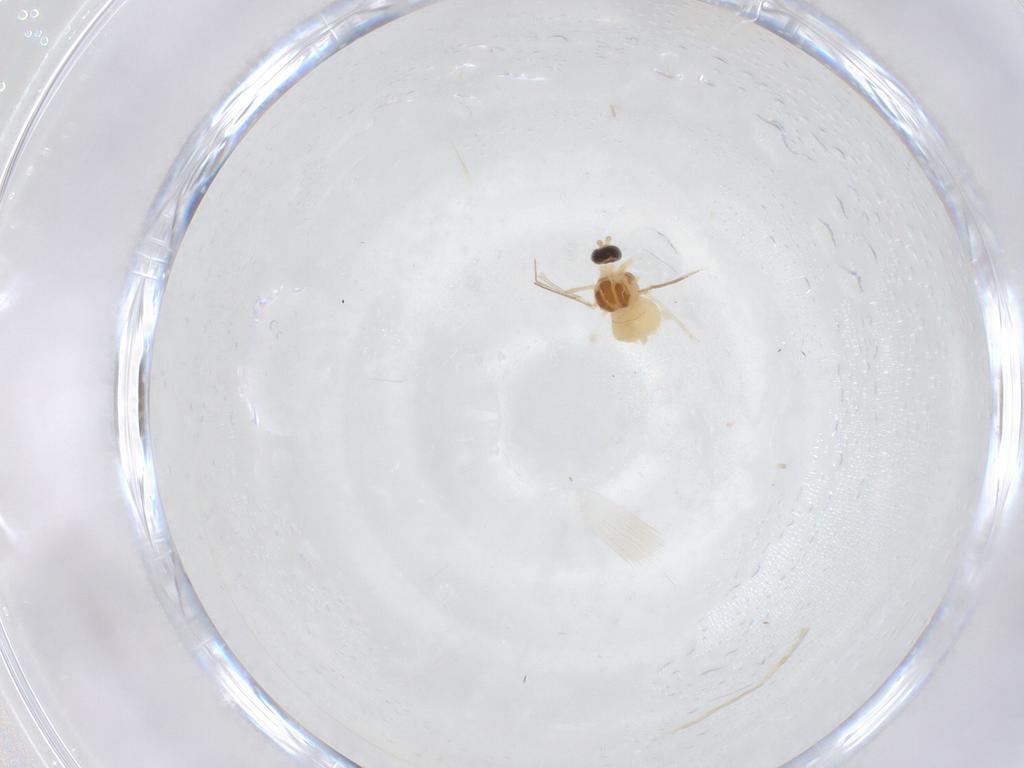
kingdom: Animalia
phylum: Arthropoda
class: Insecta
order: Diptera
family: Cecidomyiidae
